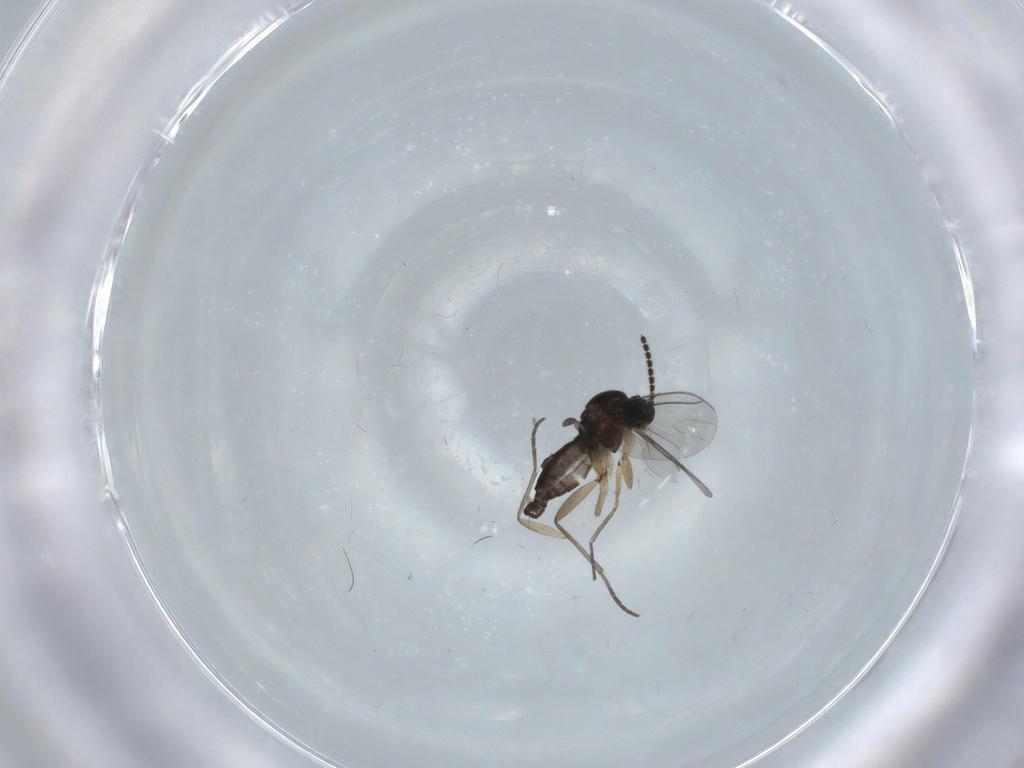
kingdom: Animalia
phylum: Arthropoda
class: Insecta
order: Diptera
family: Sciaridae
